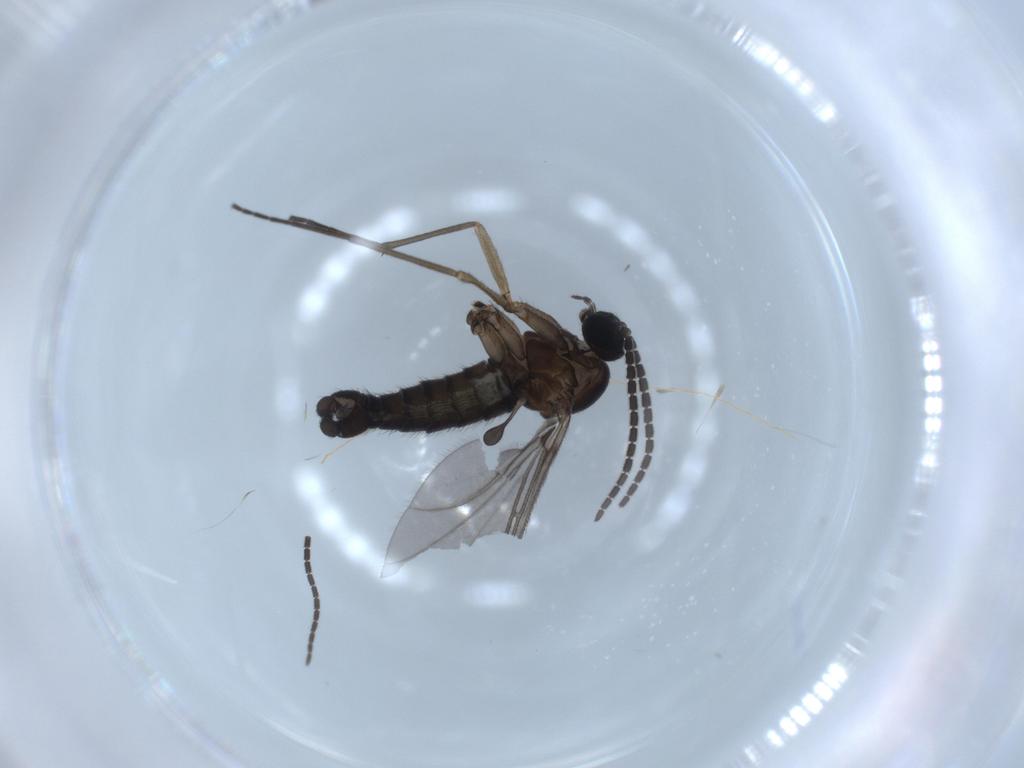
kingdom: Animalia
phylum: Arthropoda
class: Insecta
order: Diptera
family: Sciaridae
